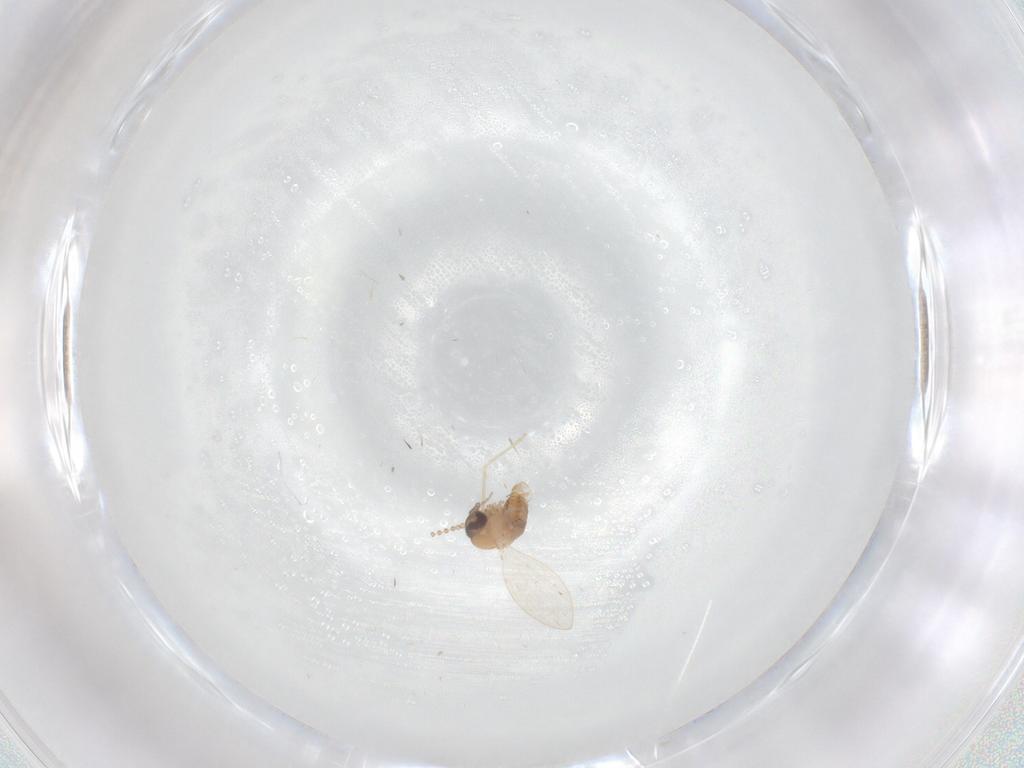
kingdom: Animalia
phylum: Arthropoda
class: Insecta
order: Diptera
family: Psychodidae
